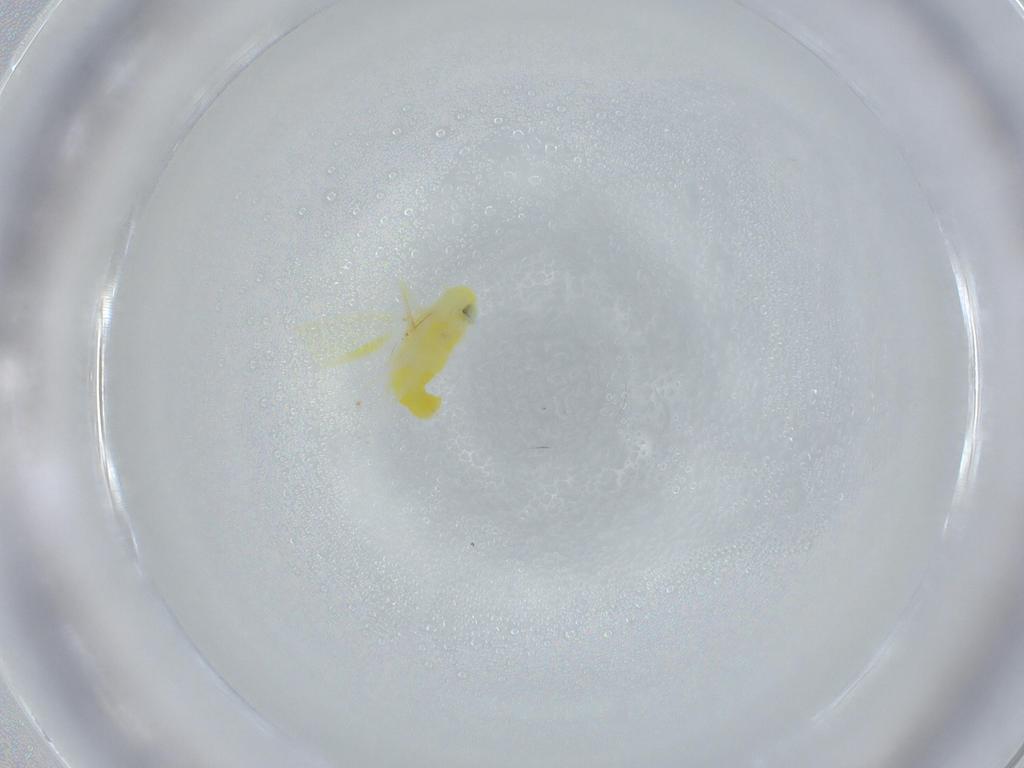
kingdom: Animalia
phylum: Arthropoda
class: Insecta
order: Hemiptera
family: Cicadellidae
